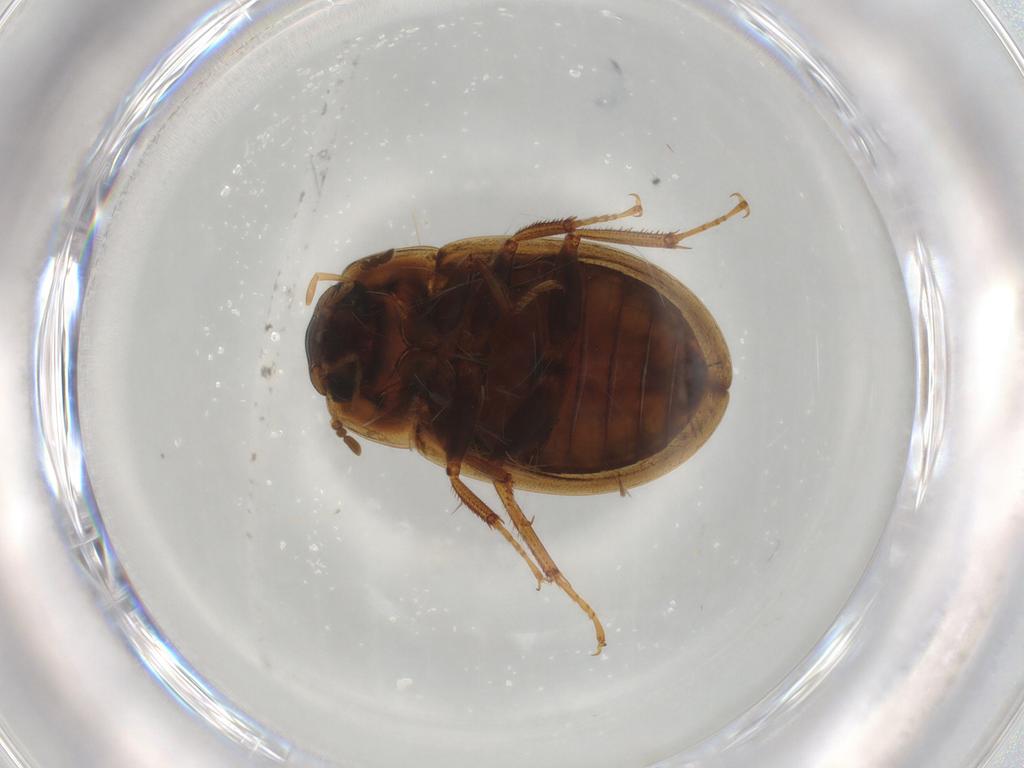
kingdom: Animalia
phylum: Arthropoda
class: Insecta
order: Coleoptera
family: Hydrophilidae
